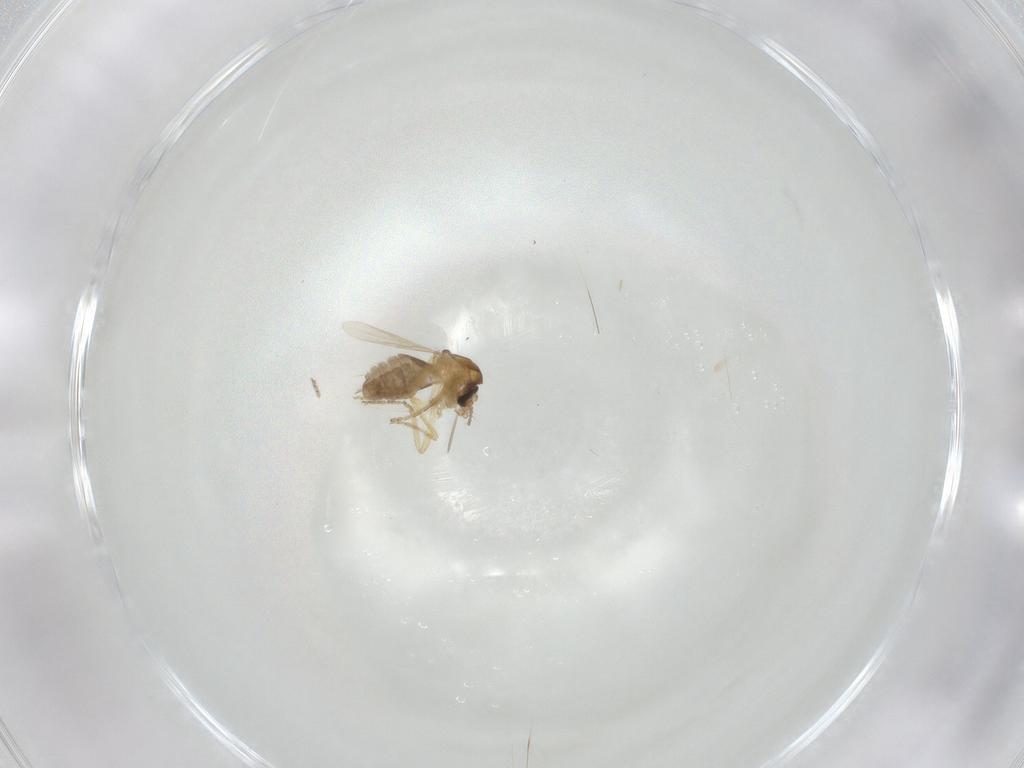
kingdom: Animalia
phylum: Arthropoda
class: Insecta
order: Diptera
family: Ceratopogonidae
